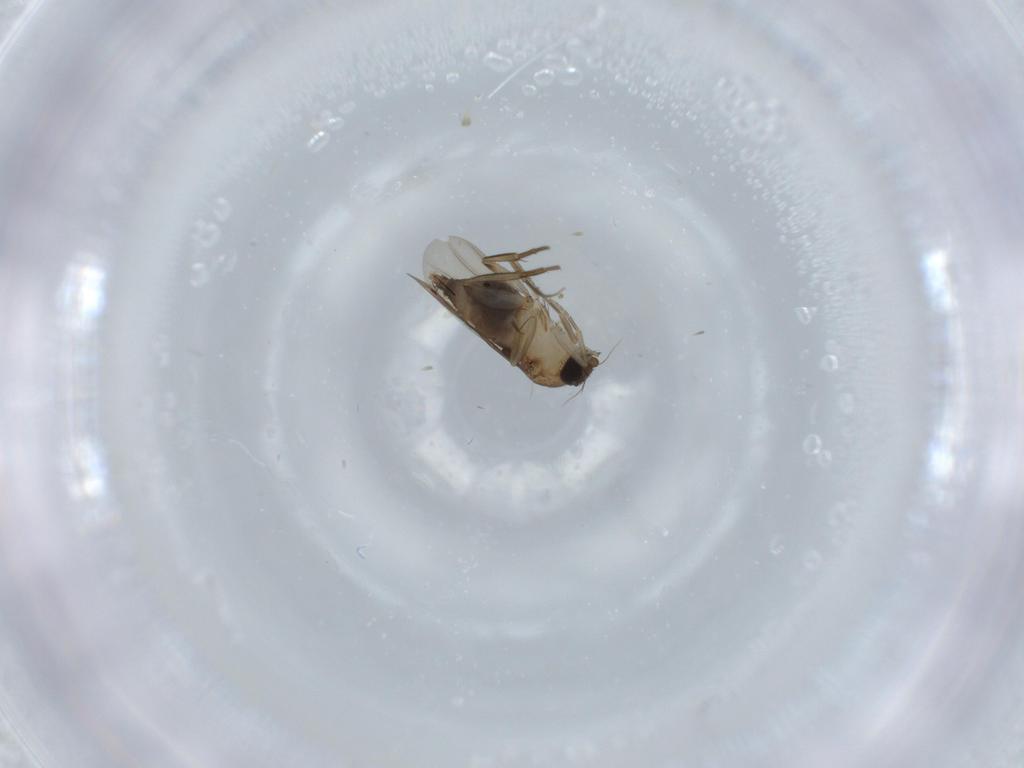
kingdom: Animalia
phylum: Arthropoda
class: Insecta
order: Diptera
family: Phoridae
